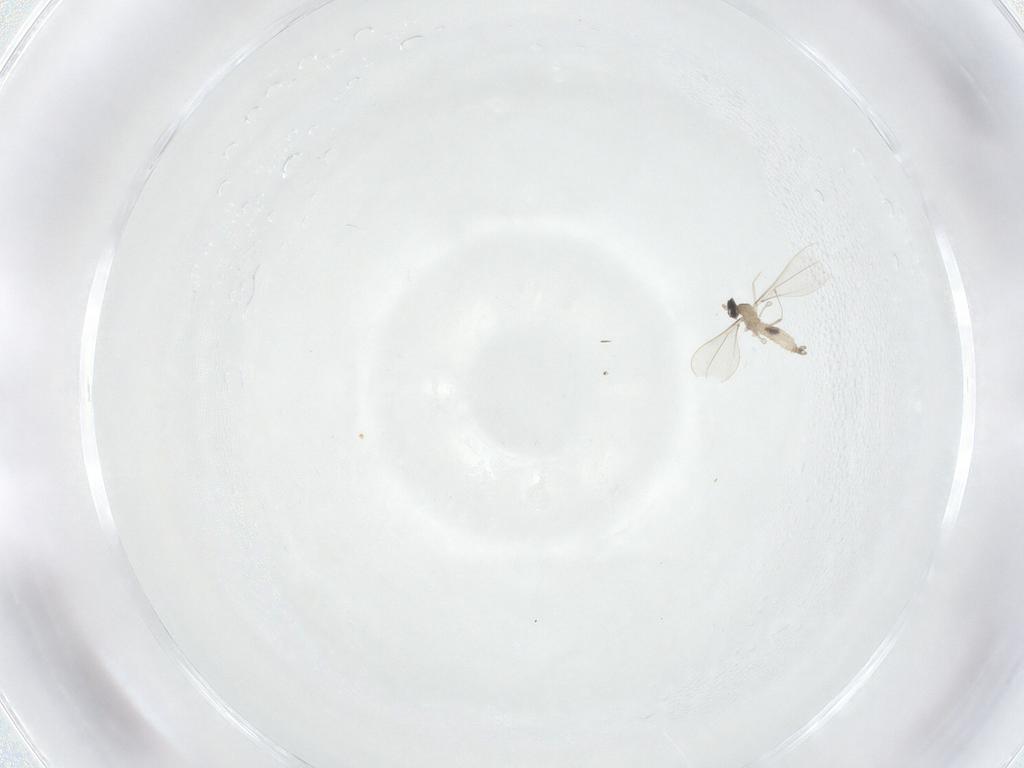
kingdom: Animalia
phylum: Arthropoda
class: Insecta
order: Diptera
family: Cecidomyiidae
